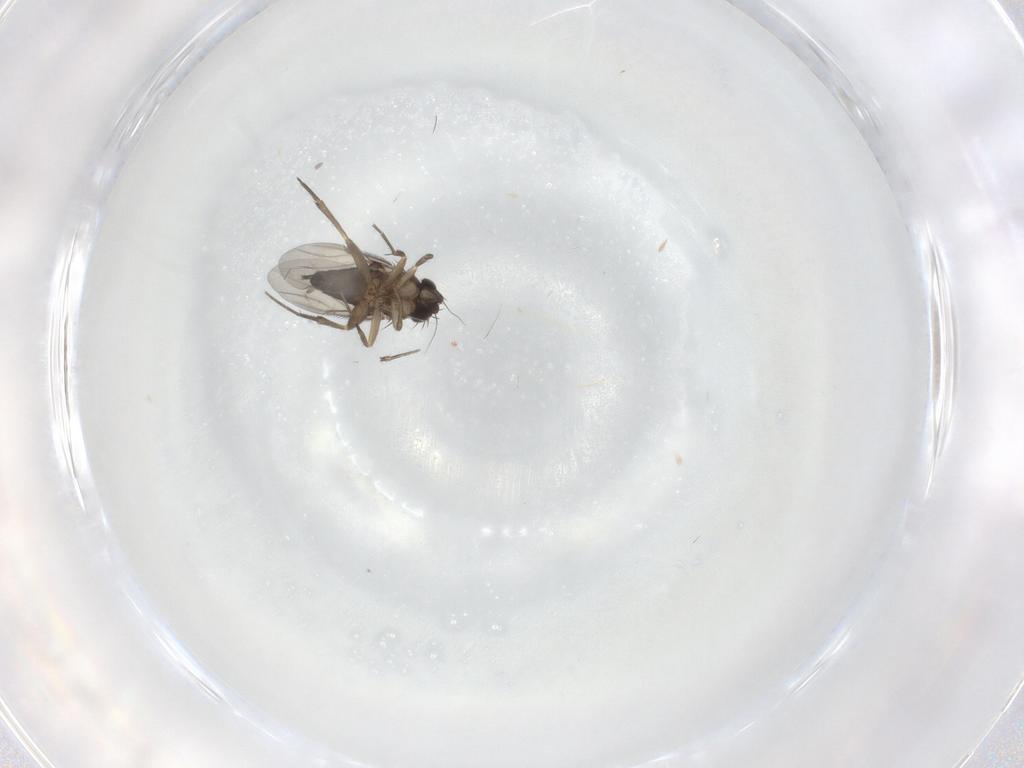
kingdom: Animalia
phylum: Arthropoda
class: Insecta
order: Diptera
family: Phoridae
